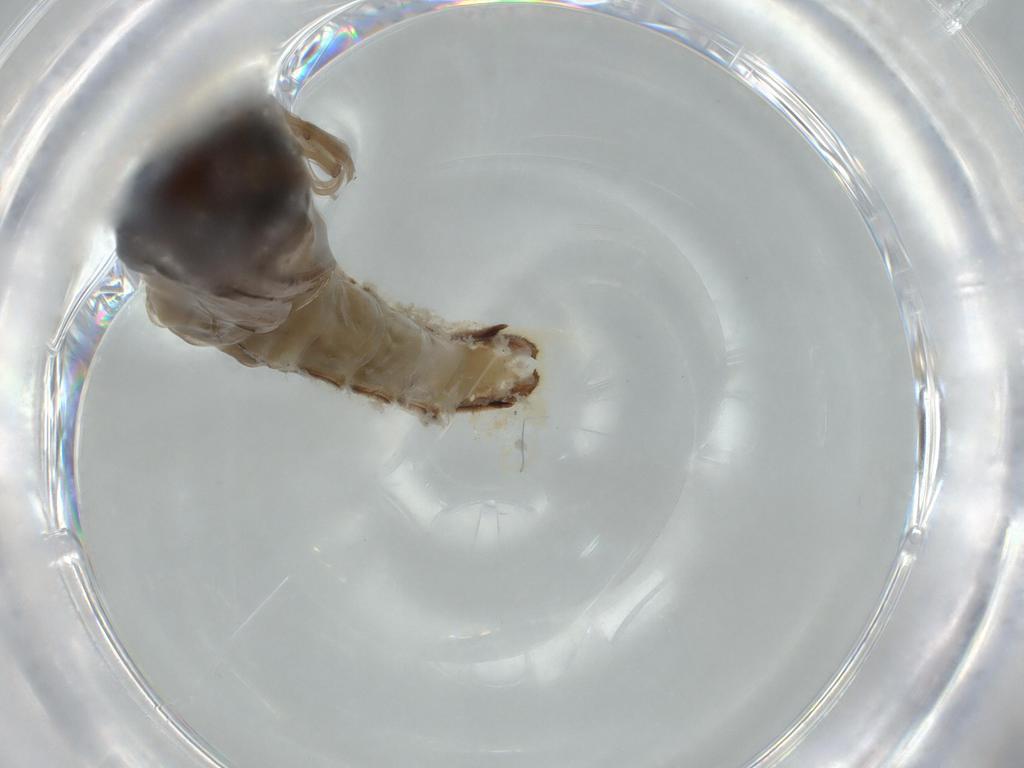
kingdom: Animalia
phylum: Arthropoda
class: Insecta
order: Diptera
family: Chironomidae
